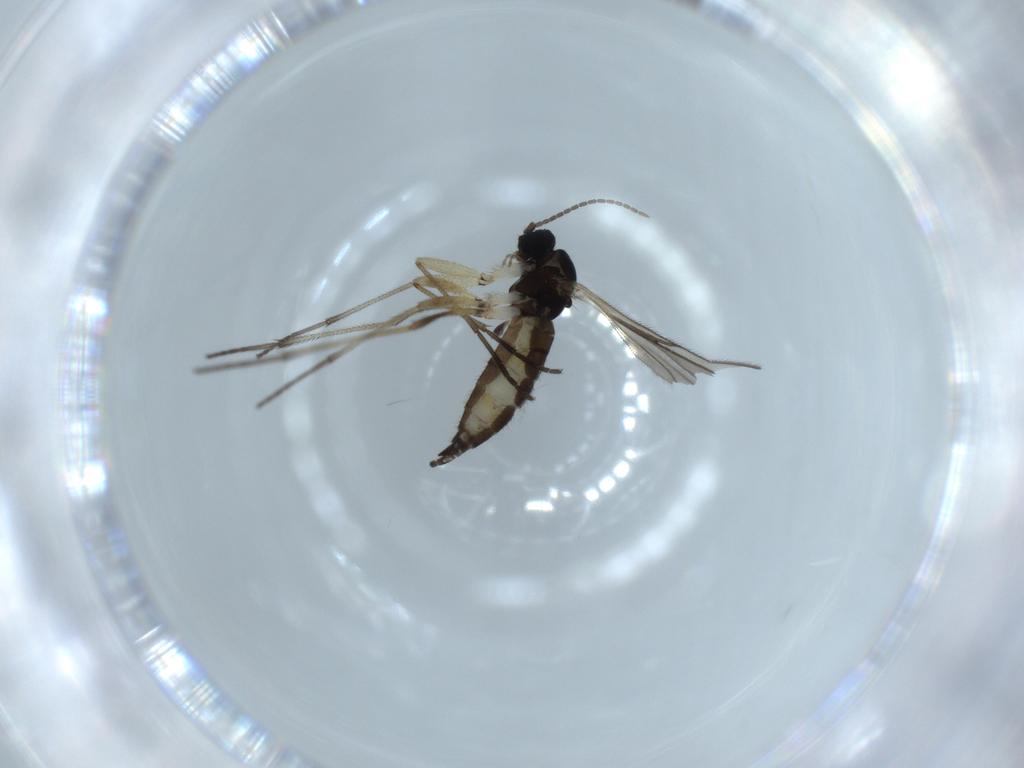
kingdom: Animalia
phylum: Arthropoda
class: Insecta
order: Diptera
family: Sciaridae
